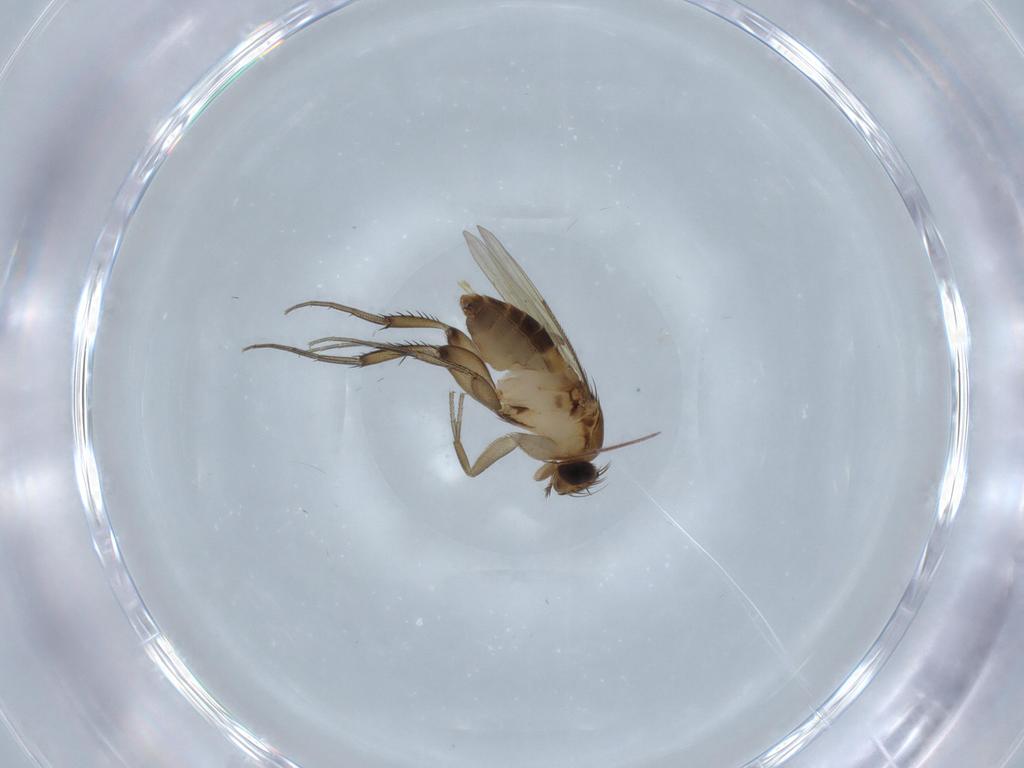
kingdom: Animalia
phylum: Arthropoda
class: Insecta
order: Diptera
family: Phoridae
